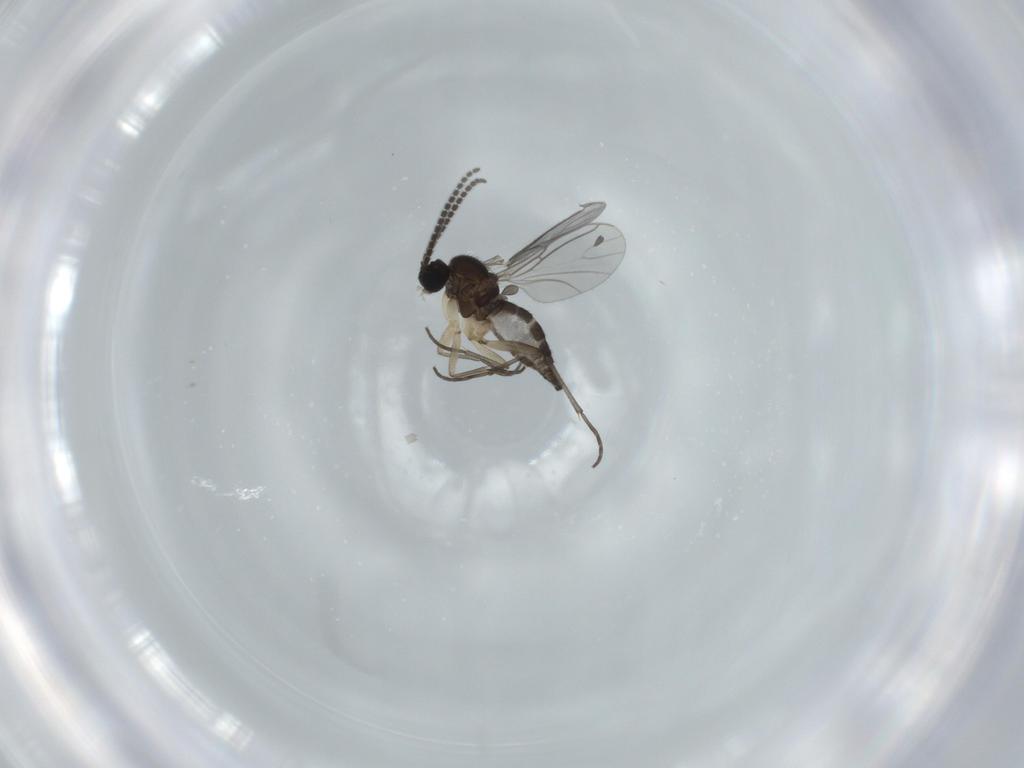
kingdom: Animalia
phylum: Arthropoda
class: Insecta
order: Diptera
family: Sciaridae
